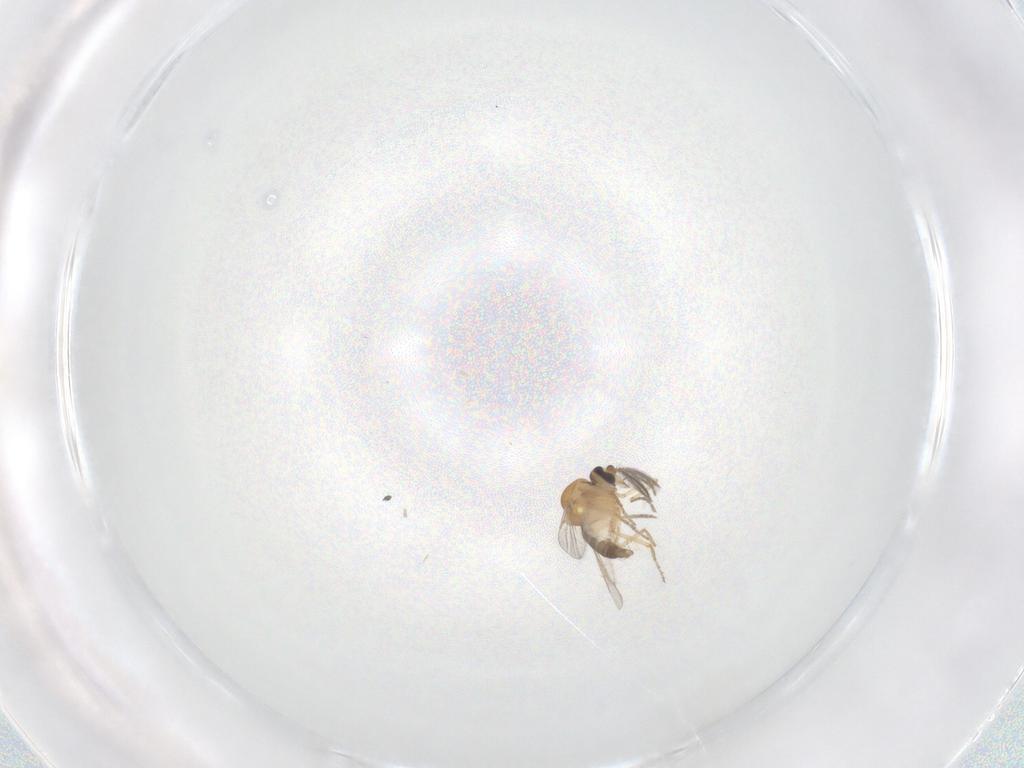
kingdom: Animalia
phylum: Arthropoda
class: Insecta
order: Diptera
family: Ceratopogonidae
